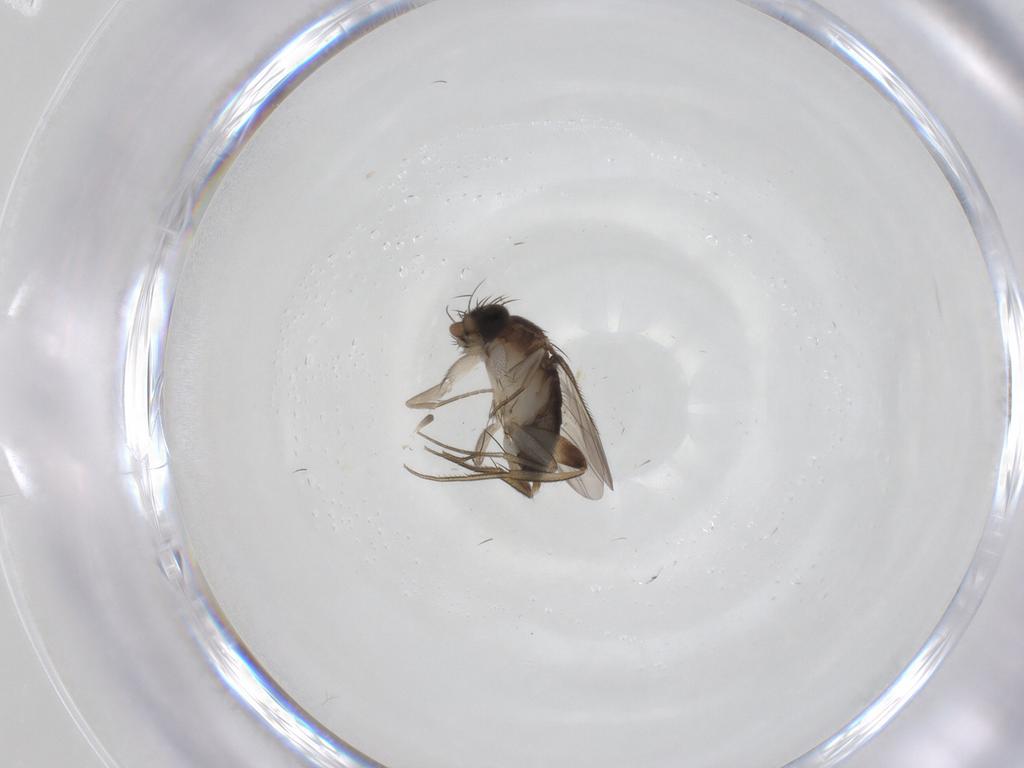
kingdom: Animalia
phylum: Arthropoda
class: Insecta
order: Diptera
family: Phoridae
